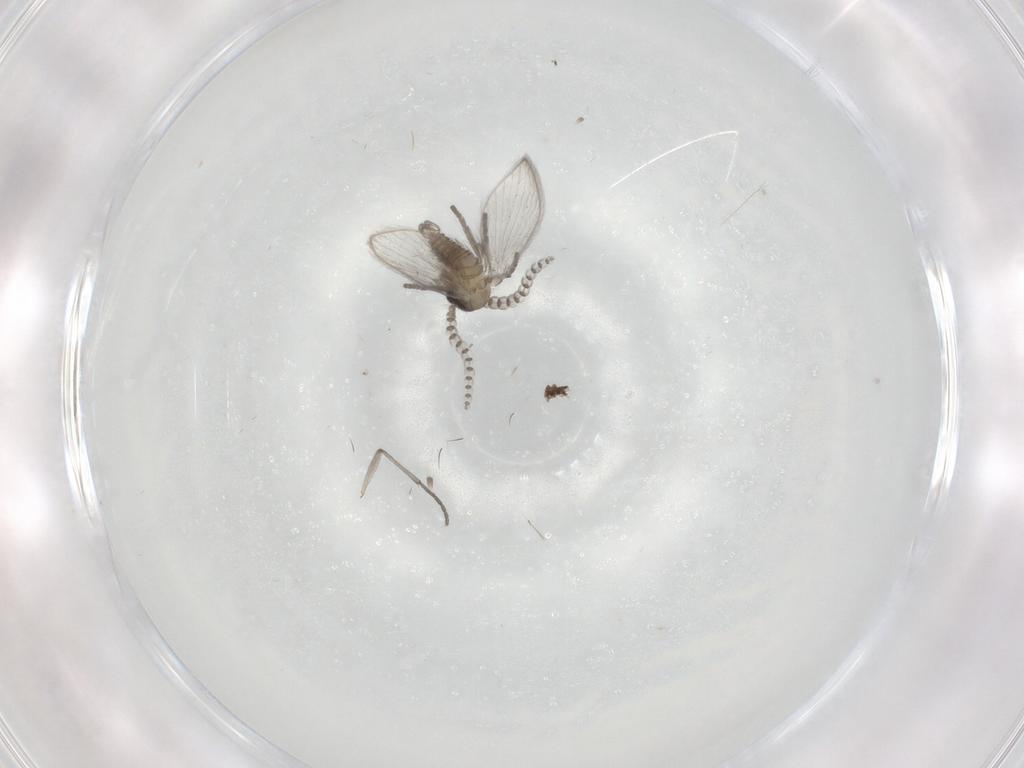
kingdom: Animalia
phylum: Arthropoda
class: Insecta
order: Diptera
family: Psychodidae
